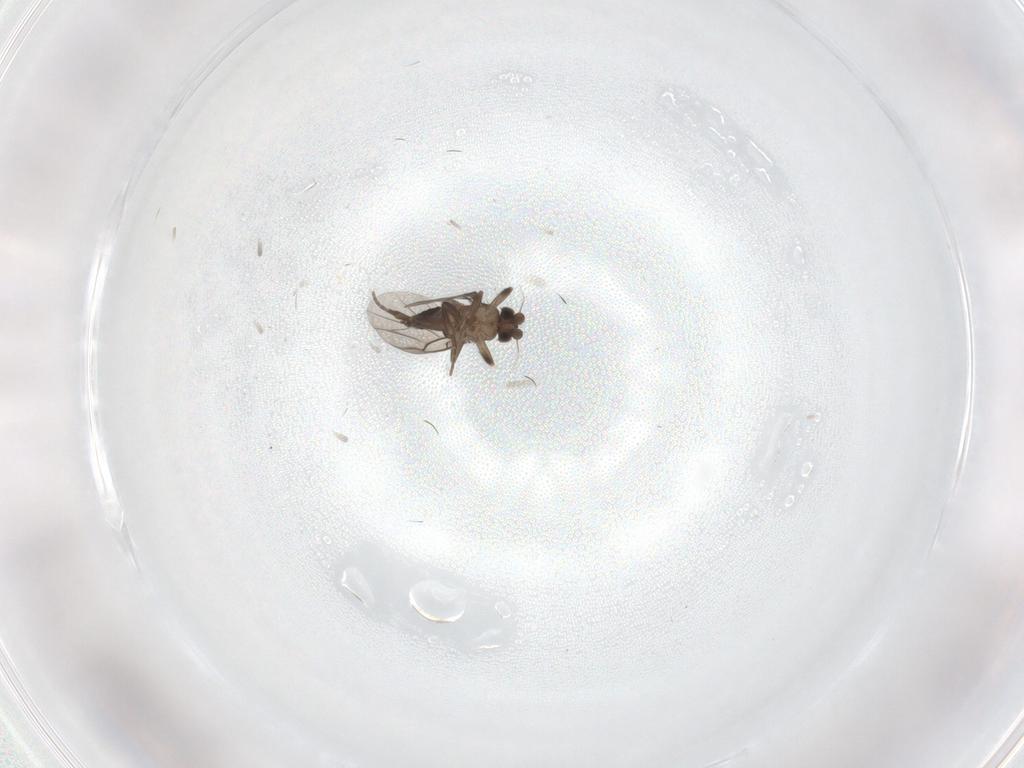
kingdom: Animalia
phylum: Arthropoda
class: Insecta
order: Diptera
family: Phoridae
